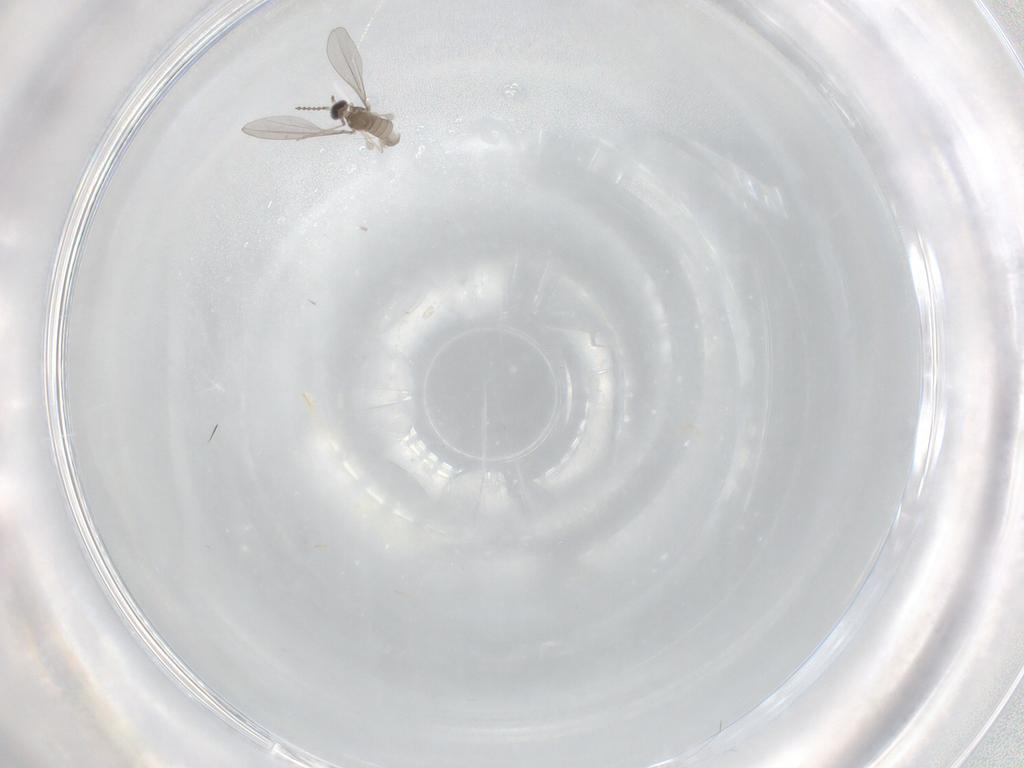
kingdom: Animalia
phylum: Arthropoda
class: Insecta
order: Diptera
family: Cecidomyiidae
